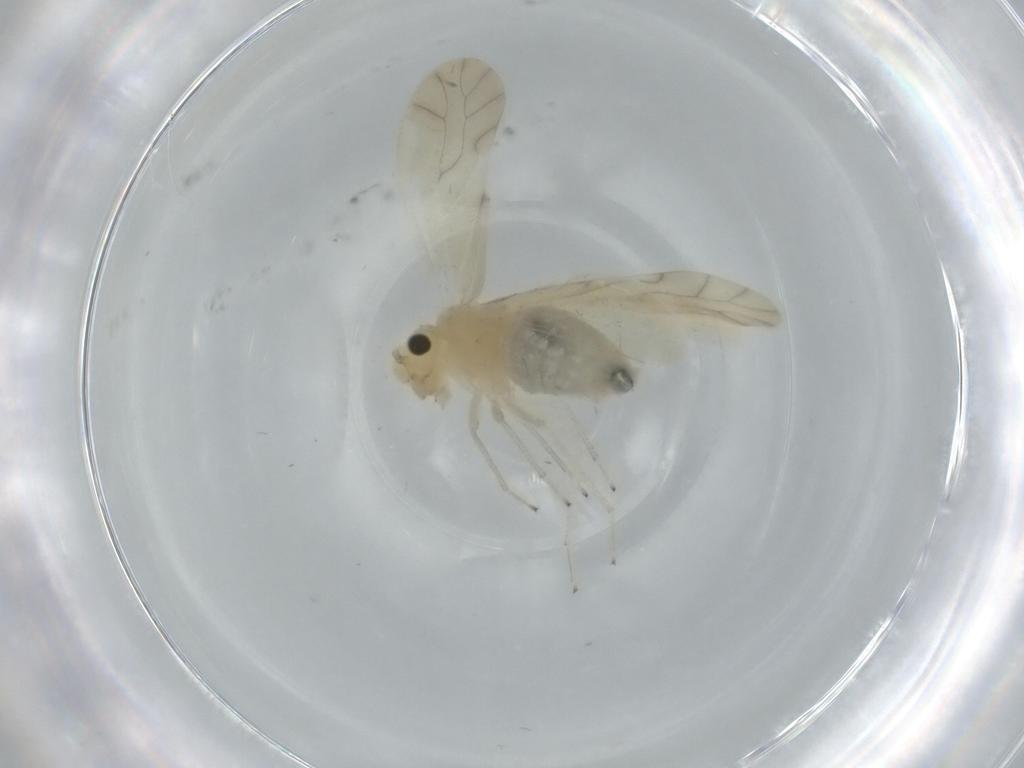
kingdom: Animalia
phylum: Arthropoda
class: Insecta
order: Psocodea
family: Caeciliusidae
